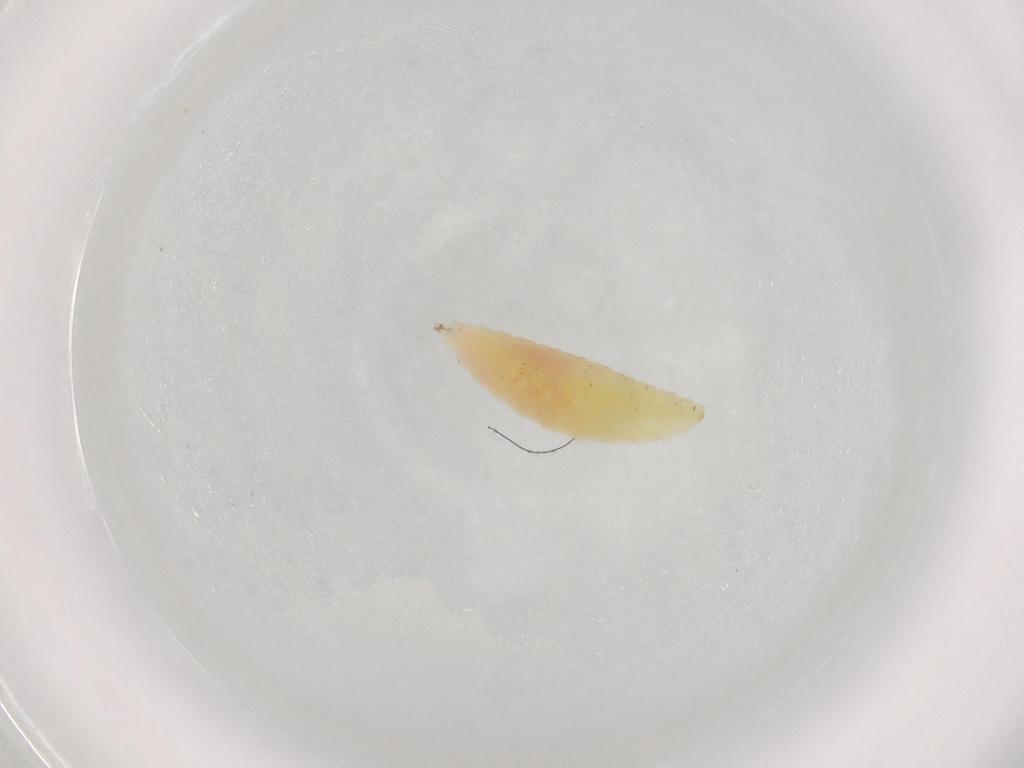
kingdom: Animalia
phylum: Arthropoda
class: Insecta
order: Diptera
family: Cecidomyiidae
